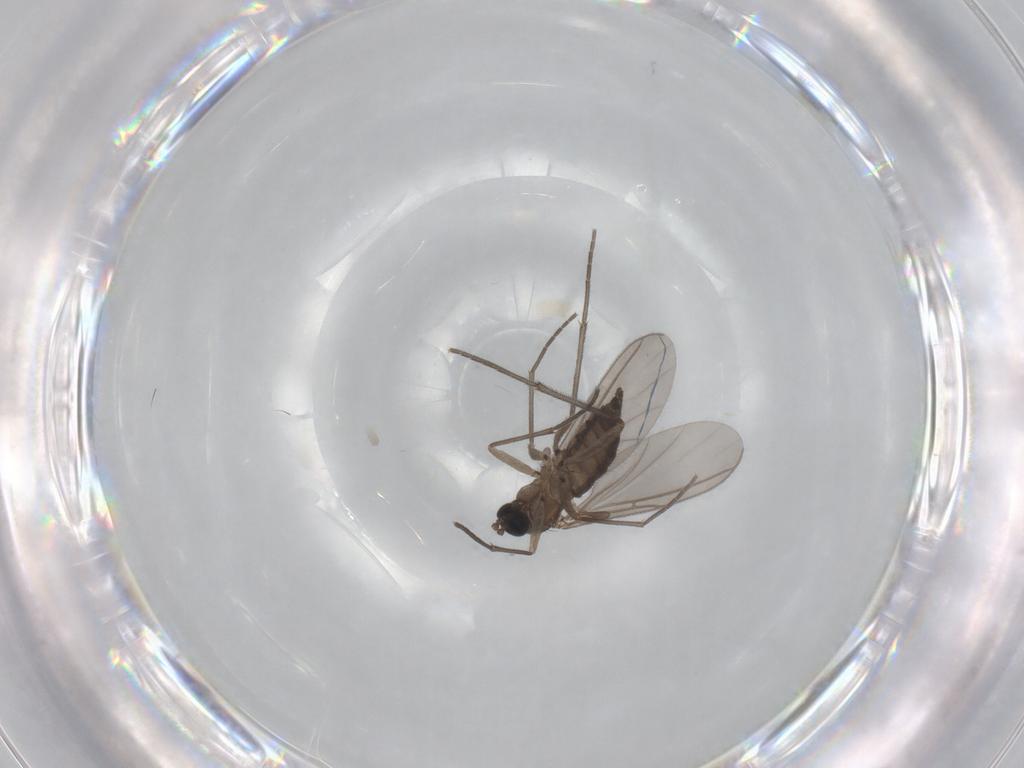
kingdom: Animalia
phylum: Arthropoda
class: Insecta
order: Diptera
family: Sciaridae
